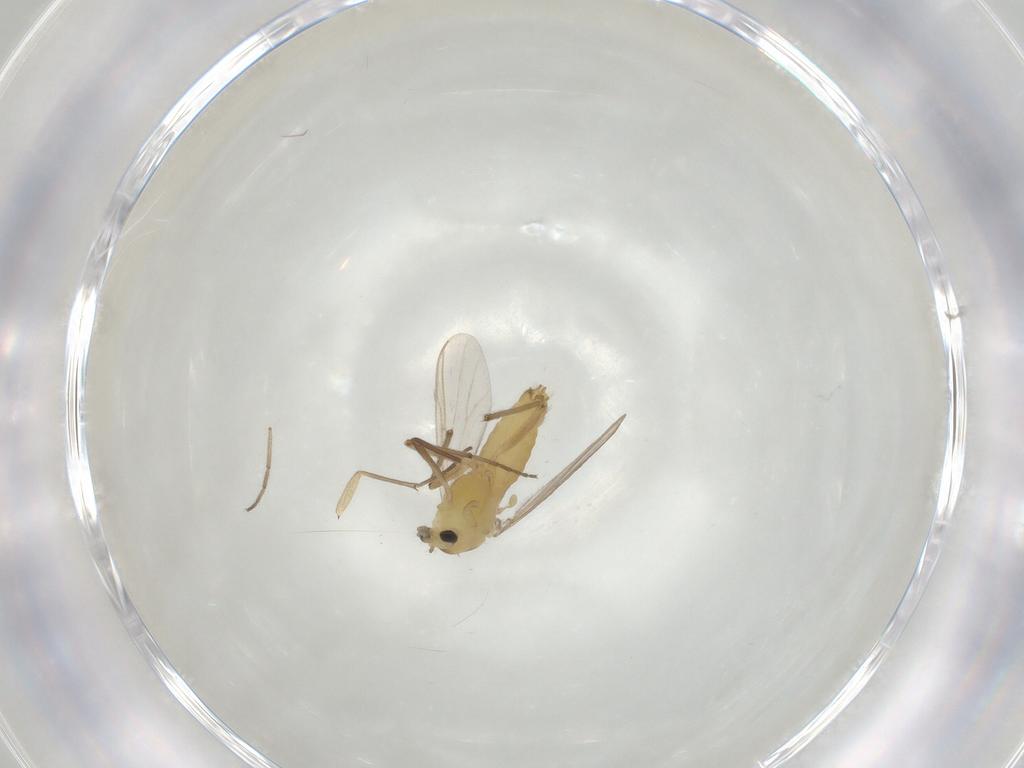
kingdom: Animalia
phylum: Arthropoda
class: Insecta
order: Diptera
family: Sciaridae
